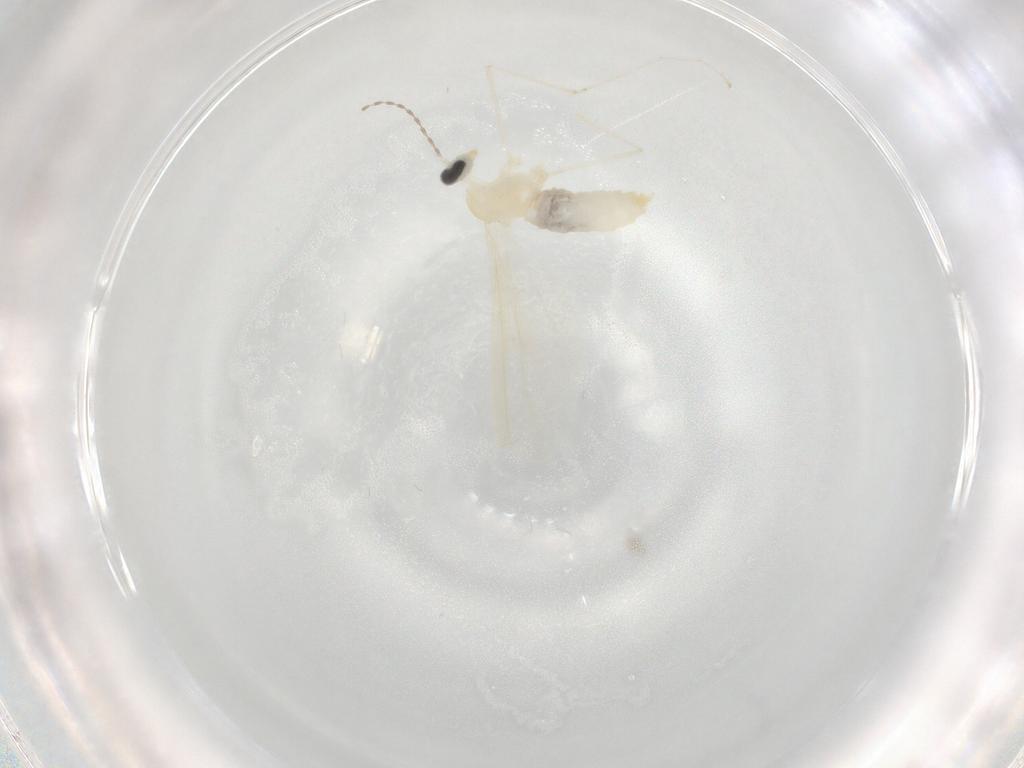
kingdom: Animalia
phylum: Arthropoda
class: Insecta
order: Diptera
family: Cecidomyiidae
